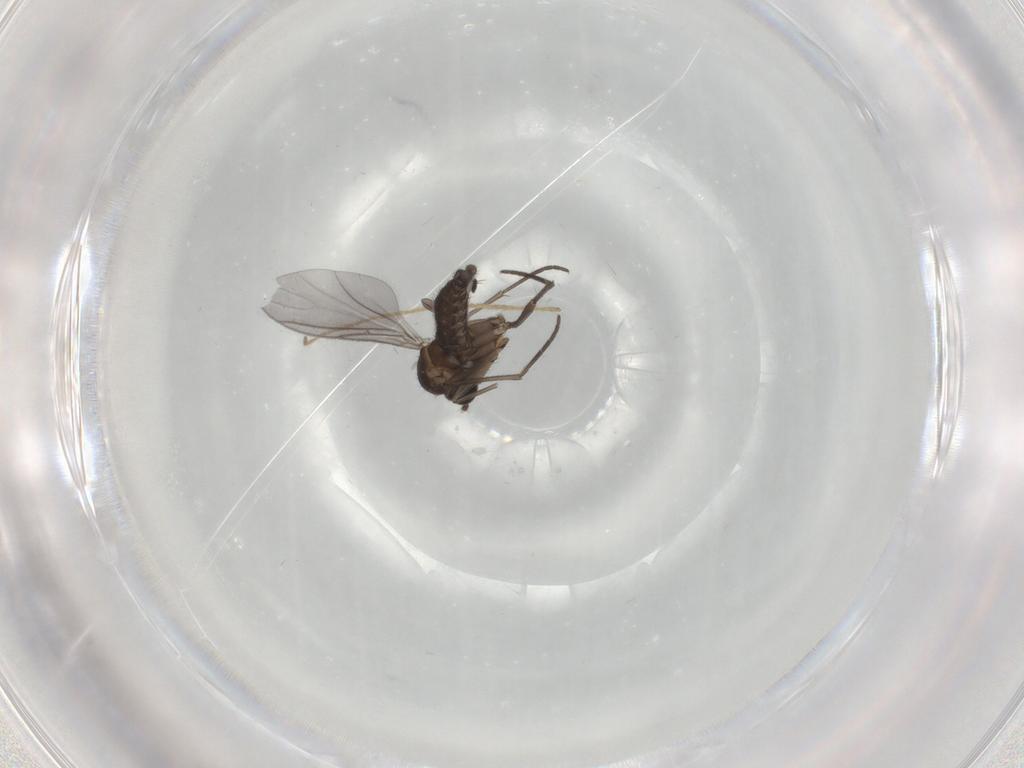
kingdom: Animalia
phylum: Arthropoda
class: Insecta
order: Diptera
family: Sciaridae
